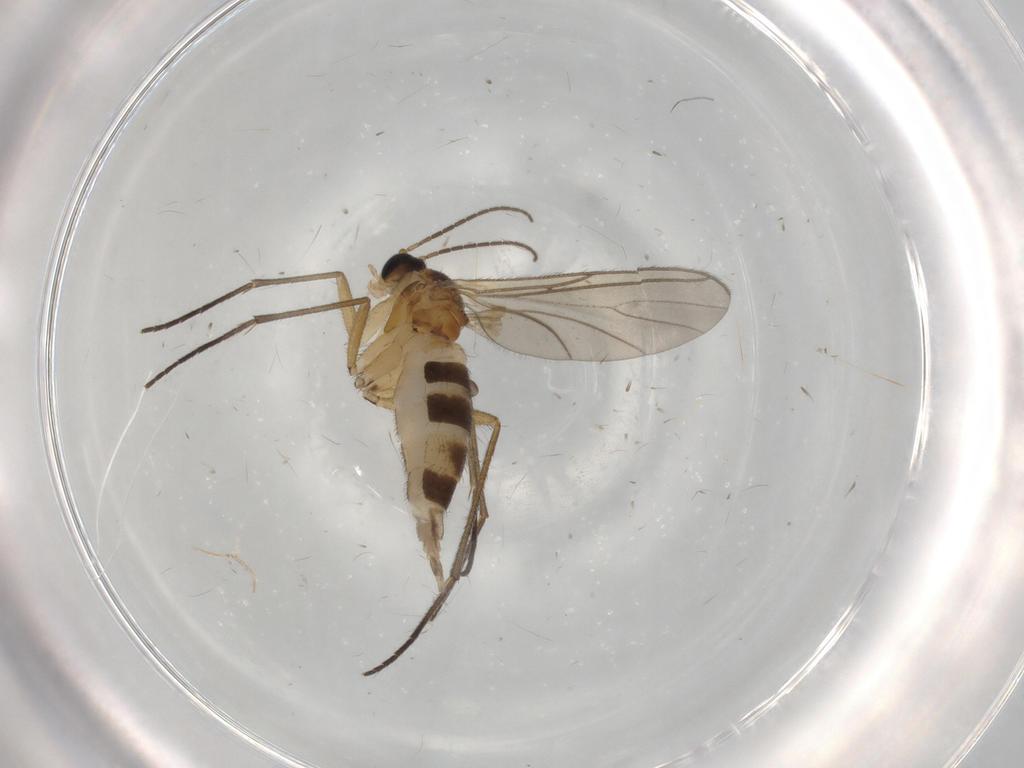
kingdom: Animalia
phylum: Arthropoda
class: Insecta
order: Diptera
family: Sciaridae
